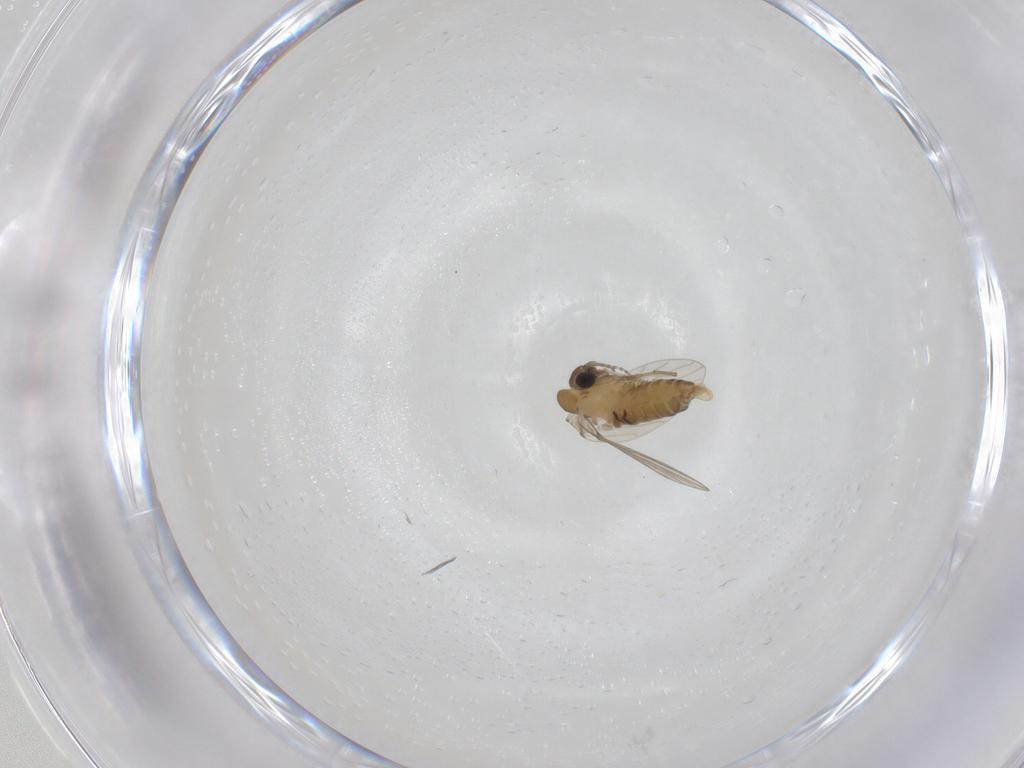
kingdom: Animalia
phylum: Arthropoda
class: Insecta
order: Diptera
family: Psychodidae
